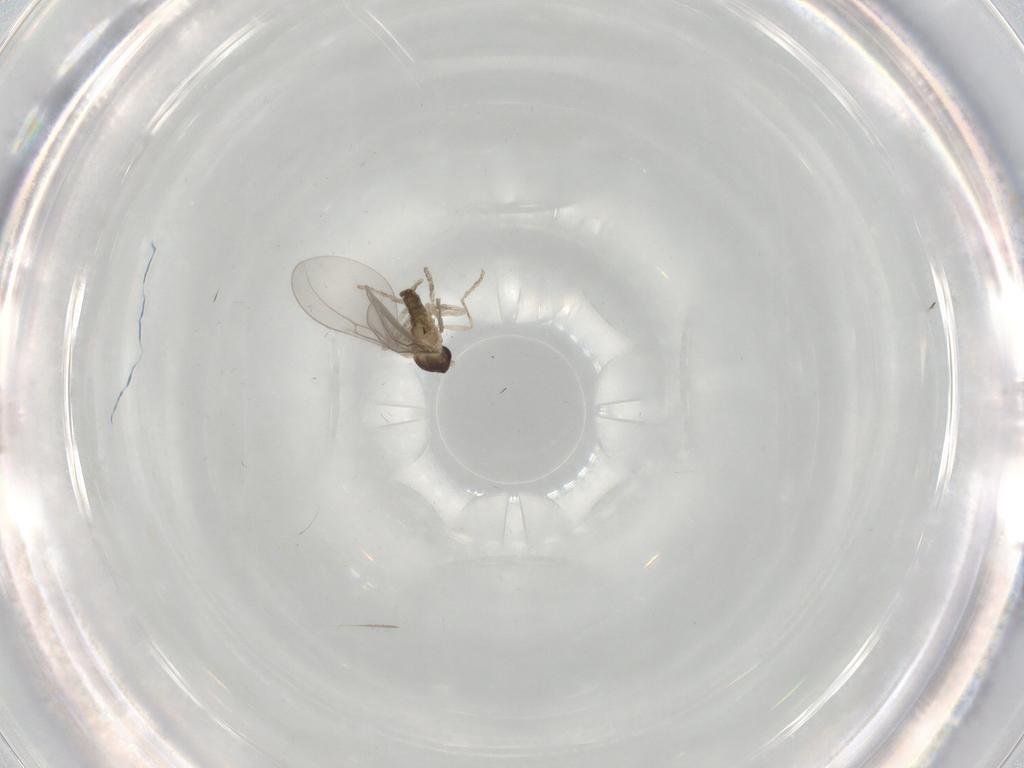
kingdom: Animalia
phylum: Arthropoda
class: Insecta
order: Diptera
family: Cecidomyiidae
